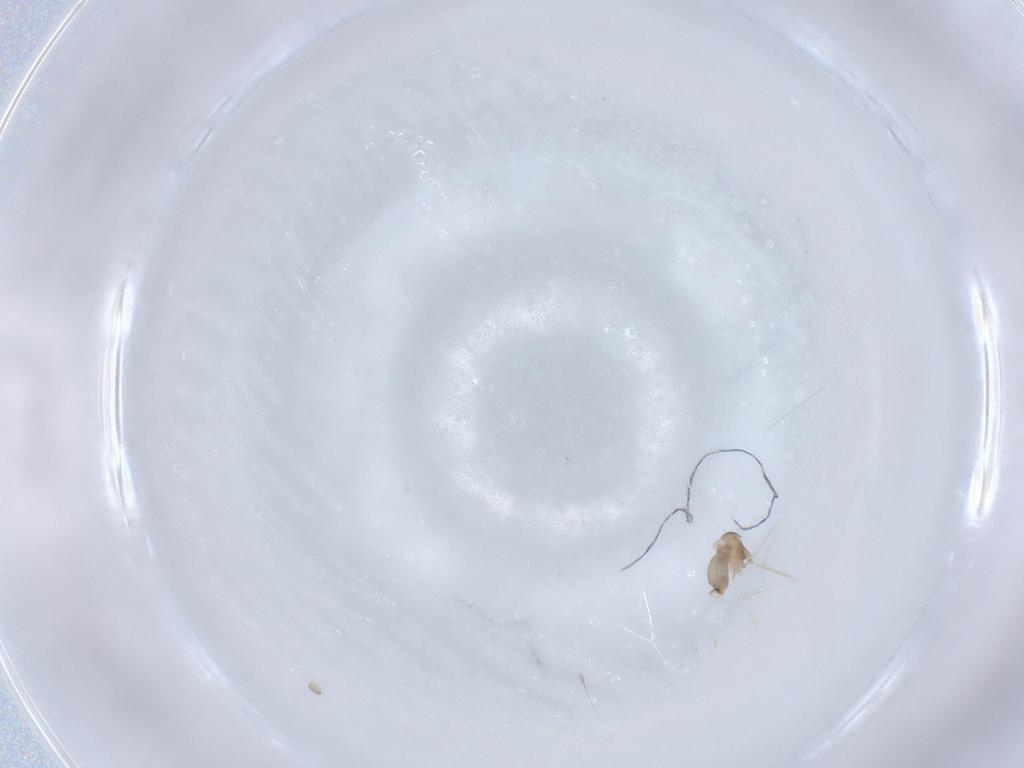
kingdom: Animalia
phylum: Arthropoda
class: Insecta
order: Diptera
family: Cecidomyiidae
